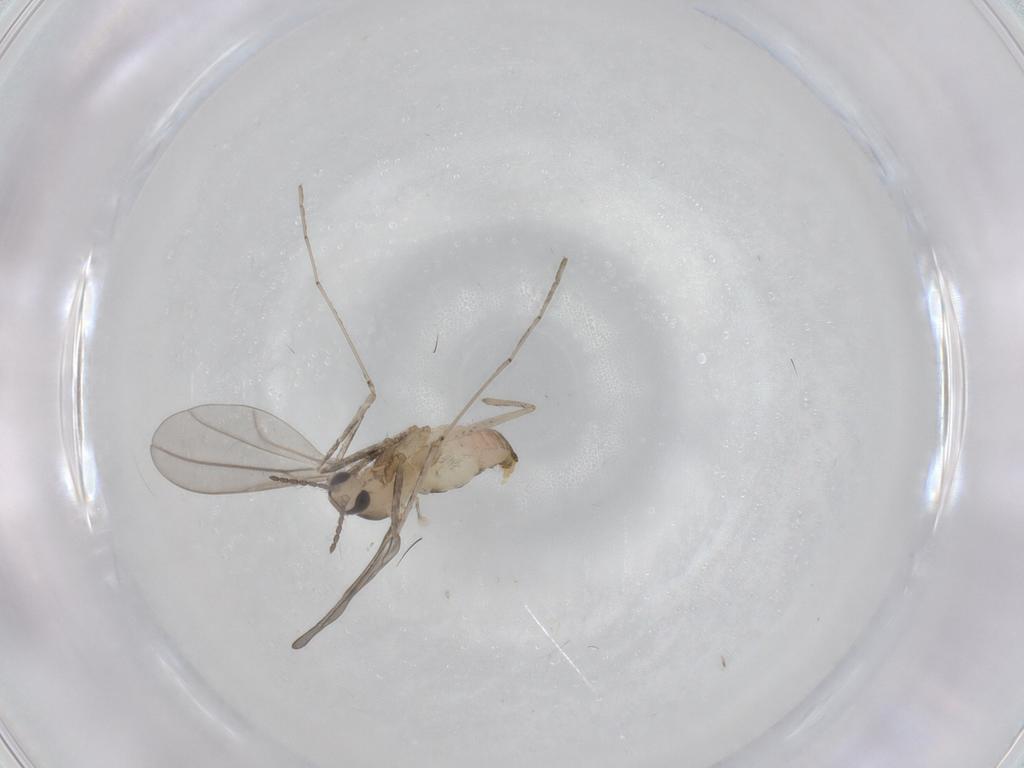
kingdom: Animalia
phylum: Arthropoda
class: Insecta
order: Diptera
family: Cecidomyiidae
